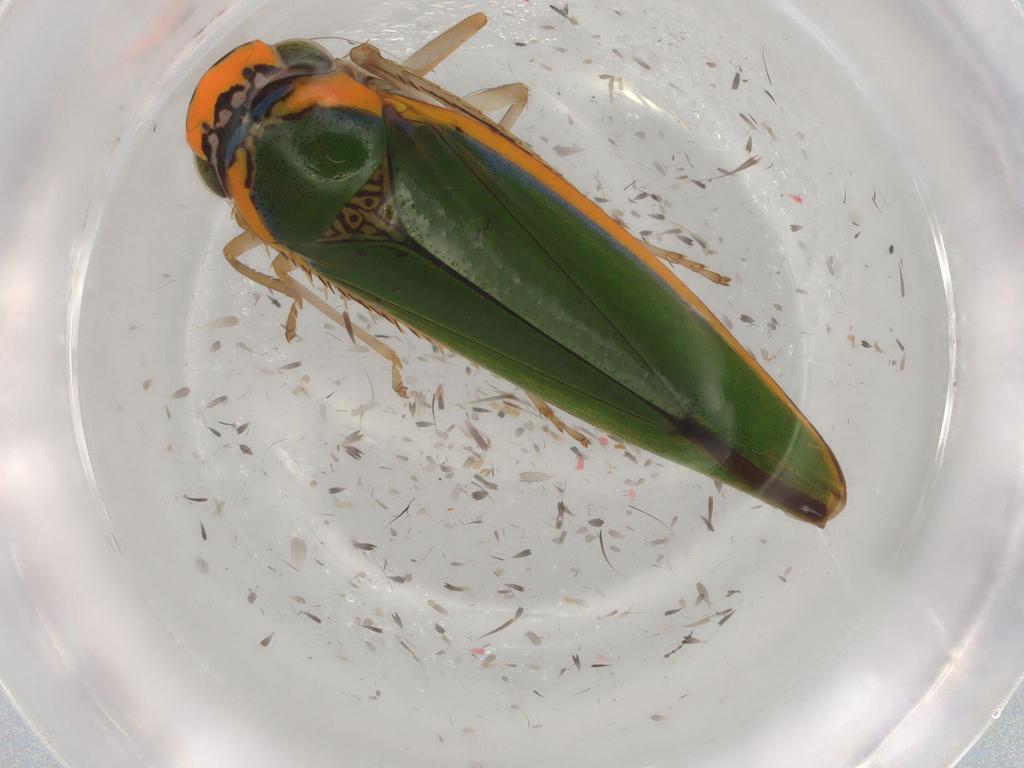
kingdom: Animalia
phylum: Arthropoda
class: Insecta
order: Hemiptera
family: Cicadellidae
